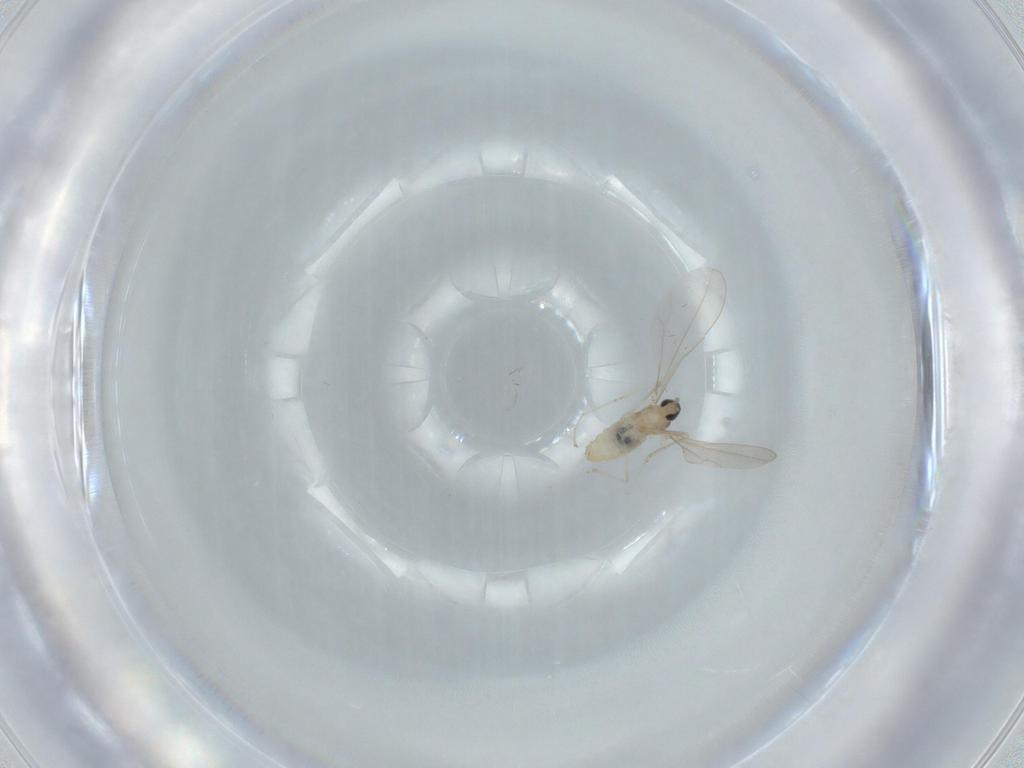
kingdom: Animalia
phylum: Arthropoda
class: Insecta
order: Diptera
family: Cecidomyiidae
